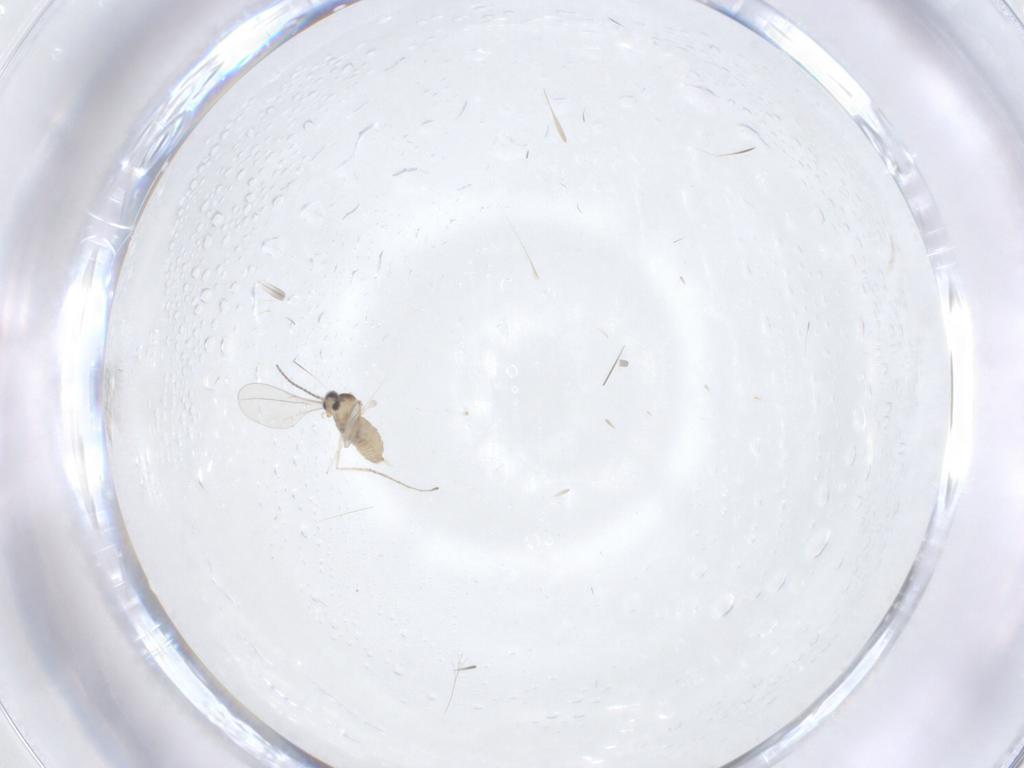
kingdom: Animalia
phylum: Arthropoda
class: Insecta
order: Diptera
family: Cecidomyiidae
